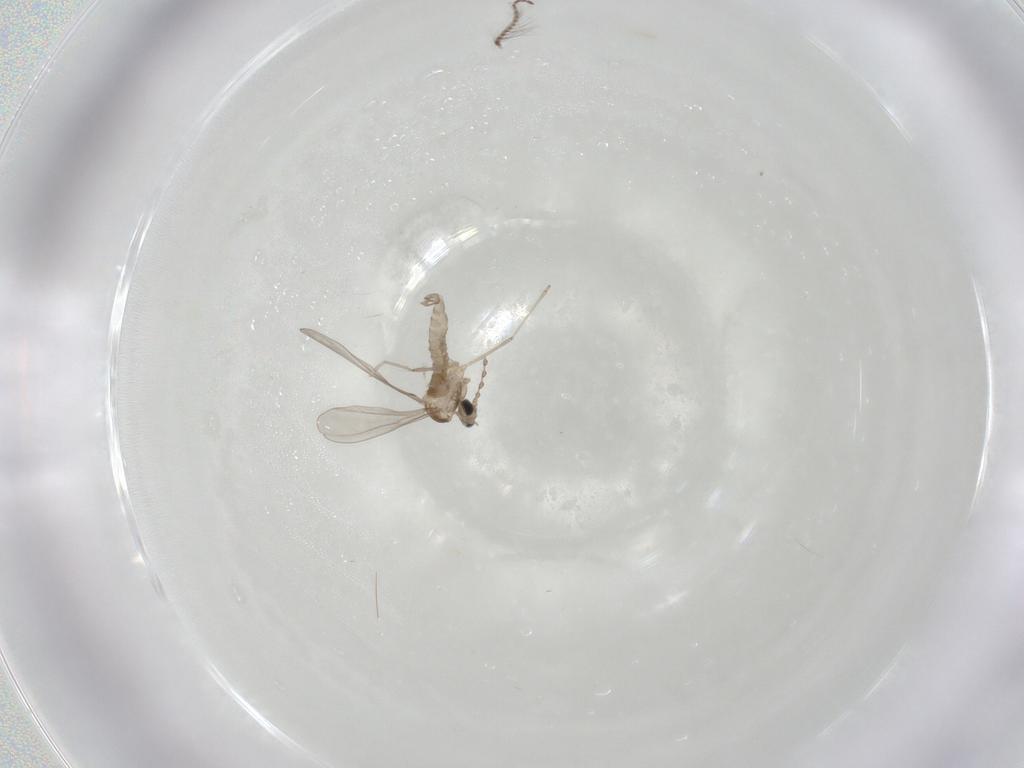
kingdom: Animalia
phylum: Arthropoda
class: Insecta
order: Diptera
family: Cecidomyiidae
